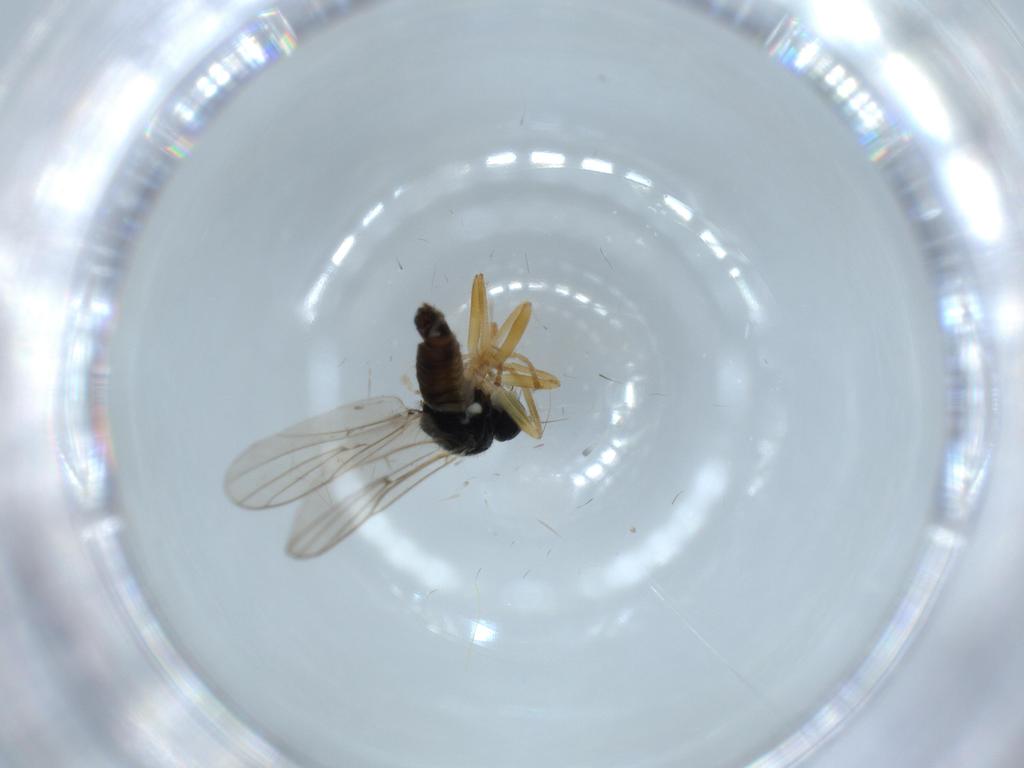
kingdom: Animalia
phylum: Arthropoda
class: Insecta
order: Diptera
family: Hybotidae
